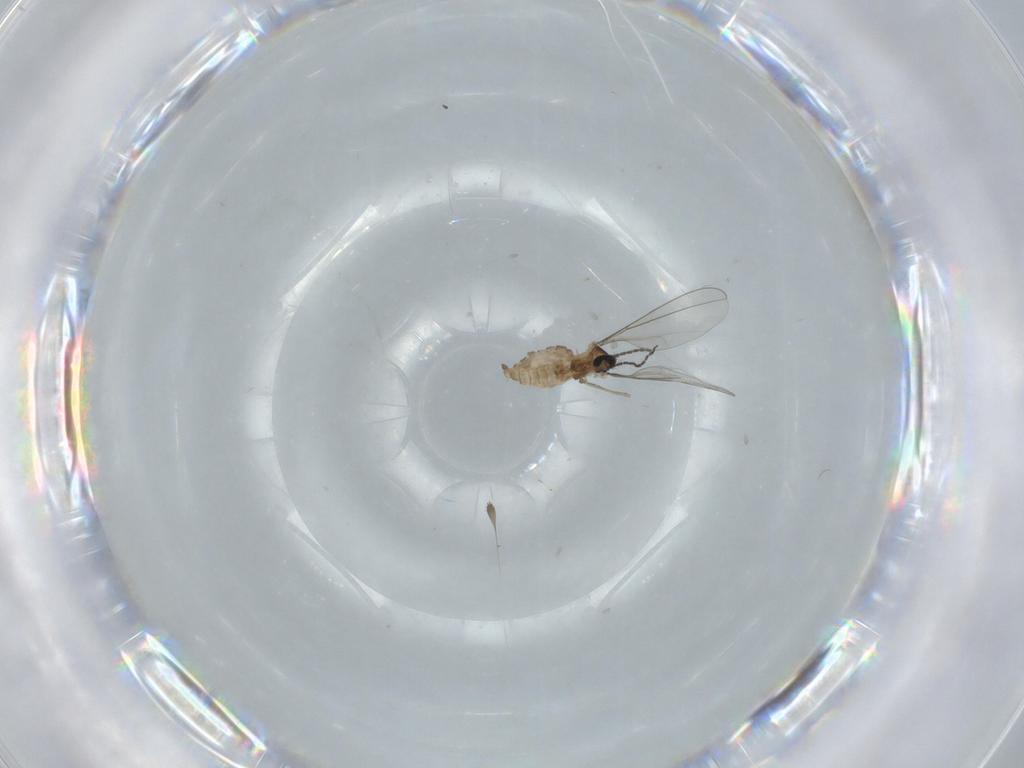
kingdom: Animalia
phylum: Arthropoda
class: Insecta
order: Diptera
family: Cecidomyiidae
